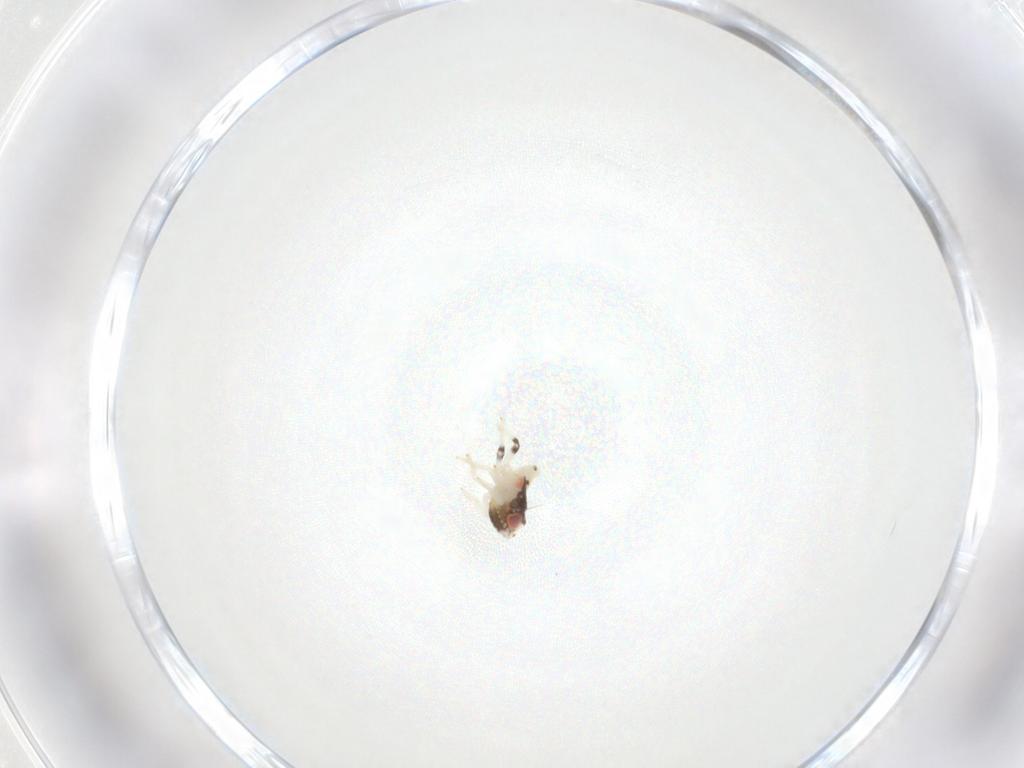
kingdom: Animalia
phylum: Arthropoda
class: Insecta
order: Diptera
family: Cecidomyiidae
